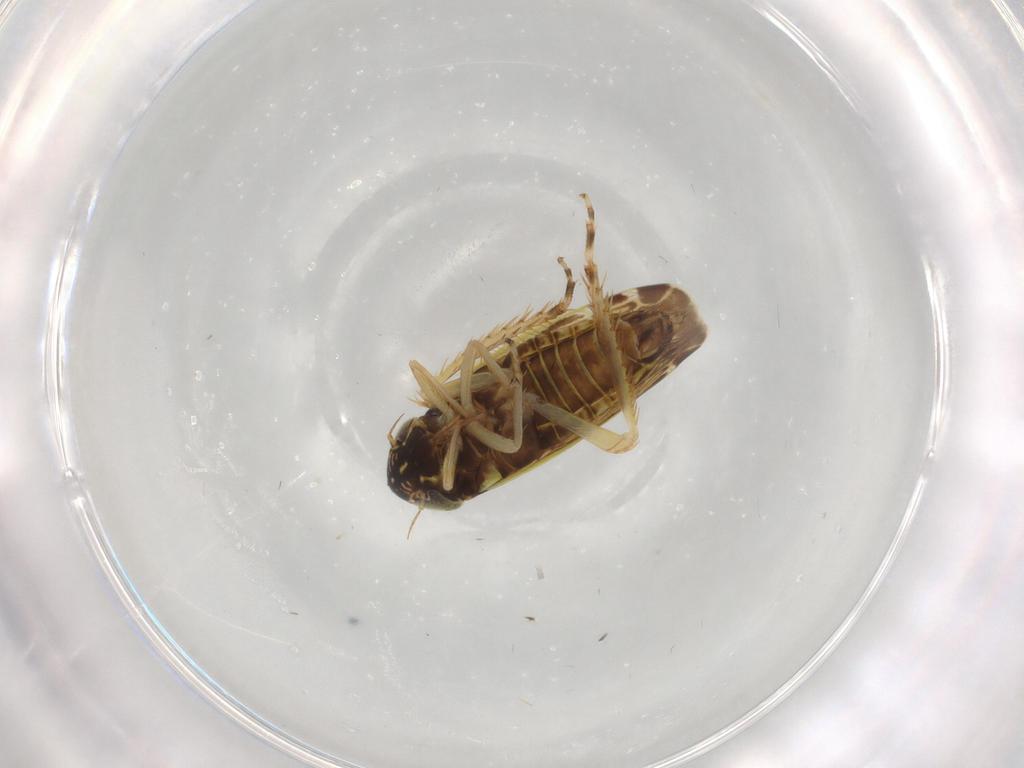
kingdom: Animalia
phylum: Arthropoda
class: Insecta
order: Hemiptera
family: Cicadellidae
